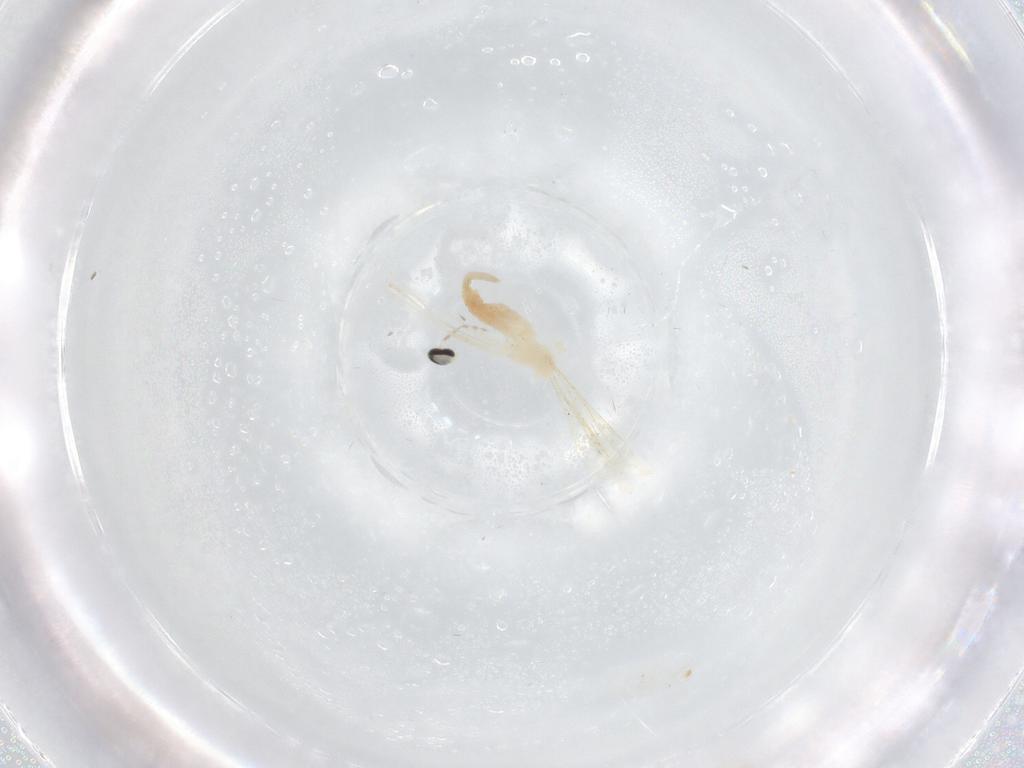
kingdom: Animalia
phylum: Arthropoda
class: Insecta
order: Diptera
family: Cecidomyiidae
